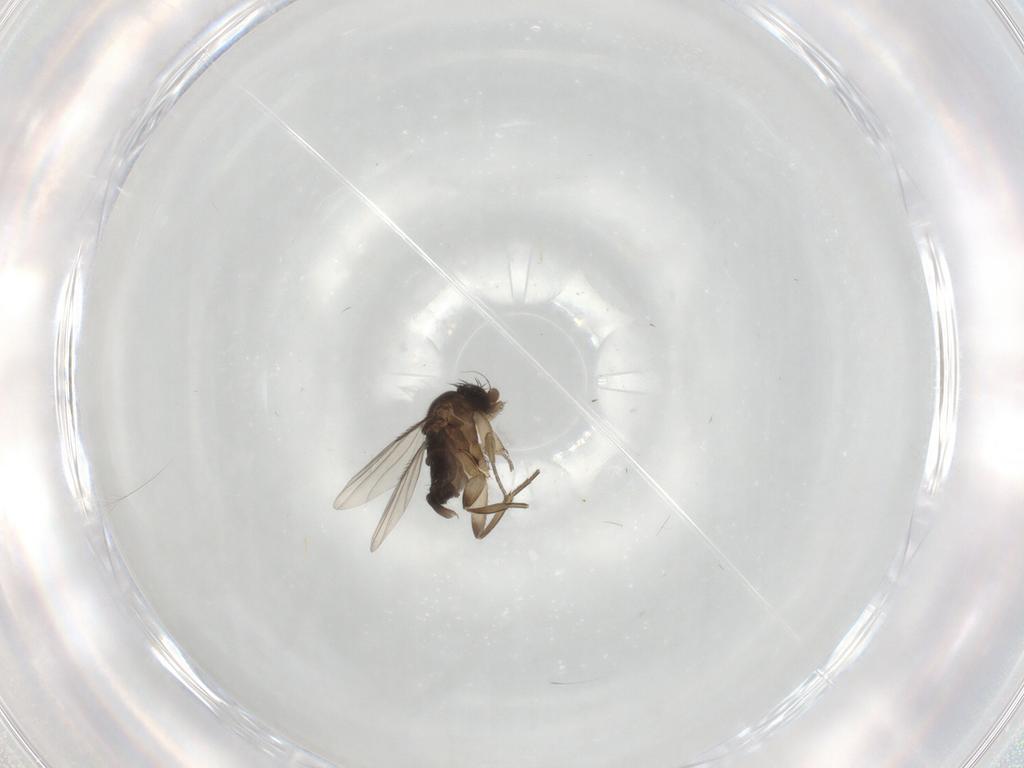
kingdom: Animalia
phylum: Arthropoda
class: Insecta
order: Diptera
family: Phoridae
